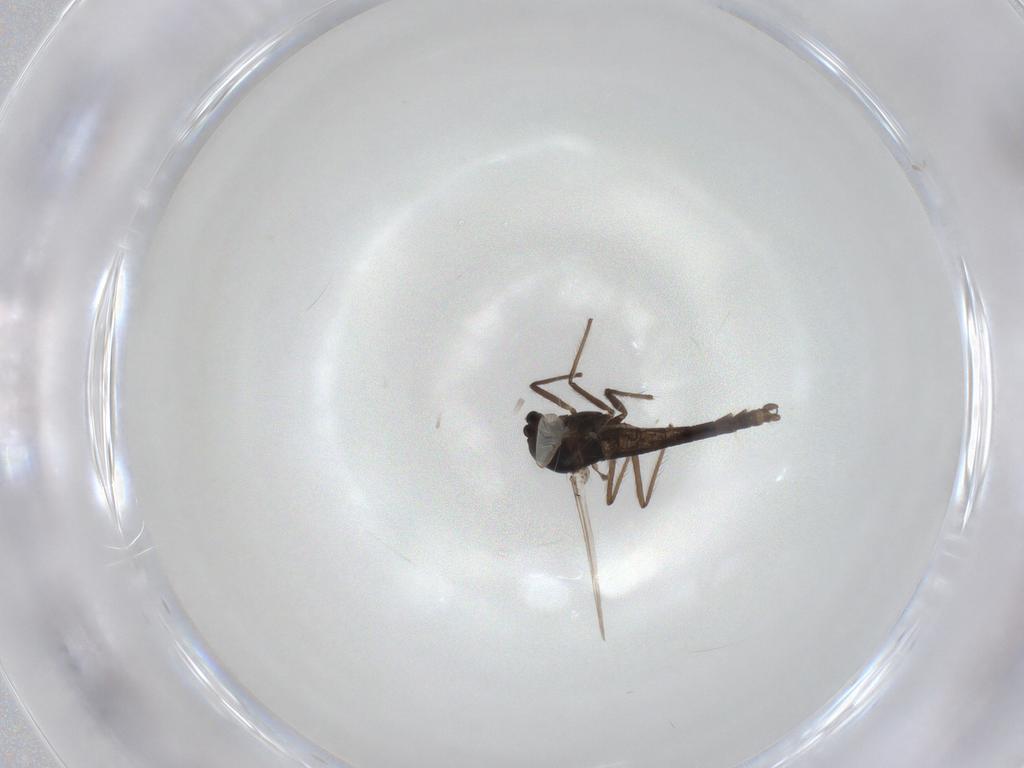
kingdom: Animalia
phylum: Arthropoda
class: Insecta
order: Diptera
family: Chironomidae
